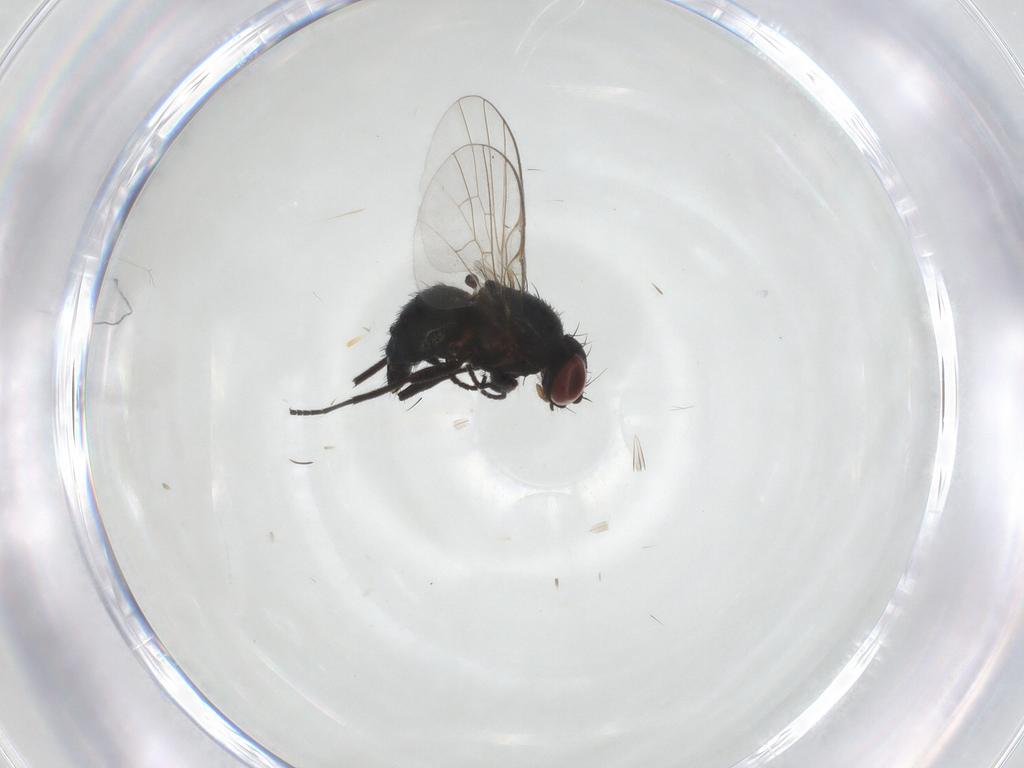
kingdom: Animalia
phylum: Arthropoda
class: Insecta
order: Diptera
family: Agromyzidae
